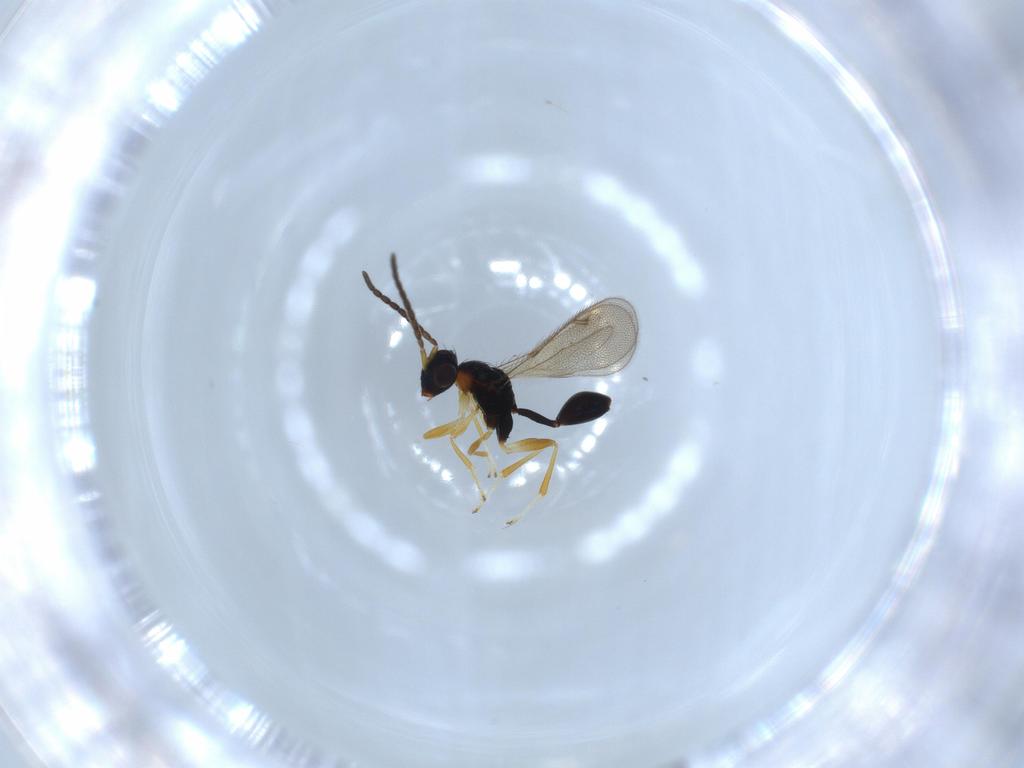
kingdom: Animalia
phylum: Arthropoda
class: Insecta
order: Hymenoptera
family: Diparidae
